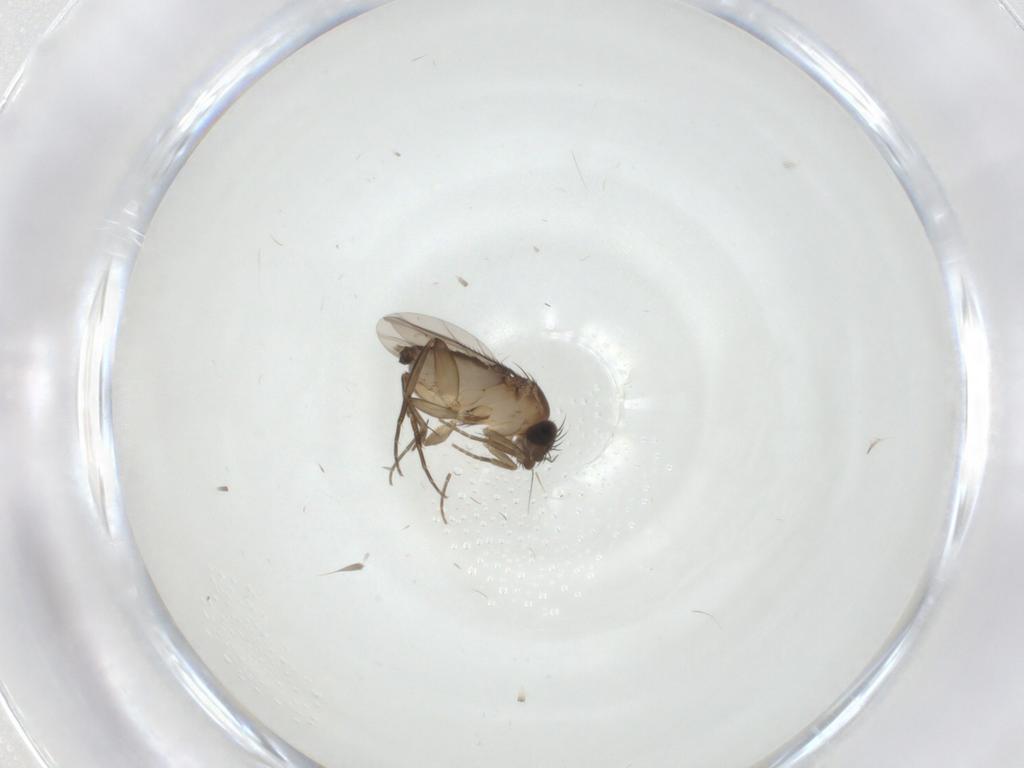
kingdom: Animalia
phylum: Arthropoda
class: Insecta
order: Diptera
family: Phoridae
